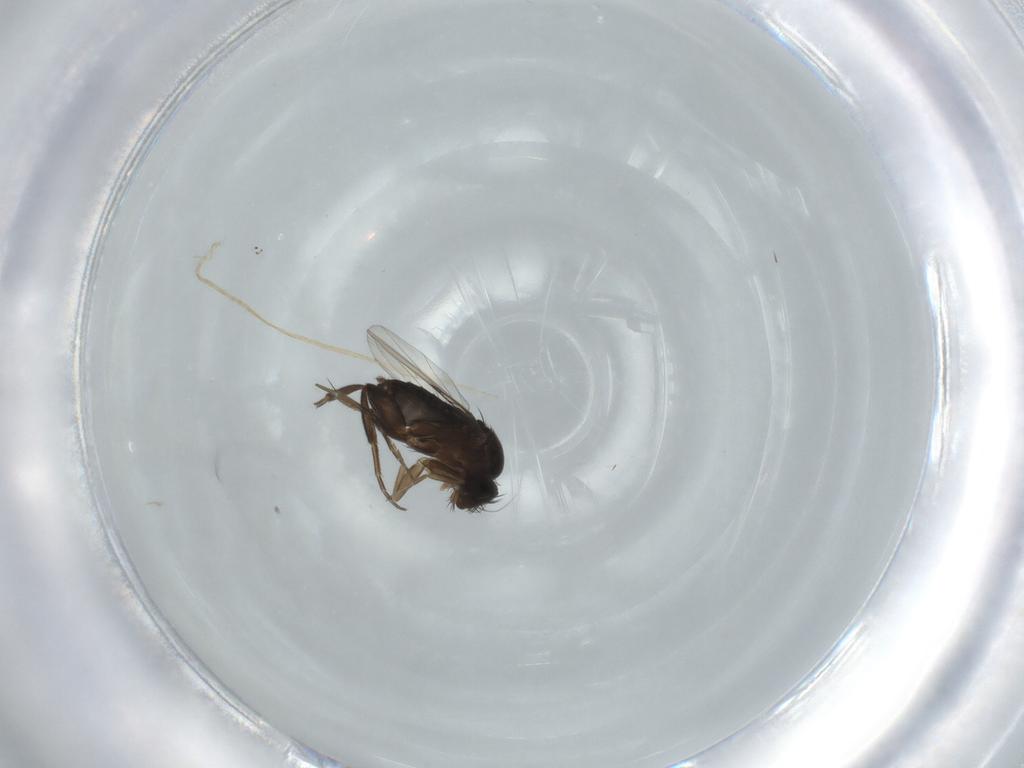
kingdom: Animalia
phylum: Arthropoda
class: Insecta
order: Diptera
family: Phoridae
